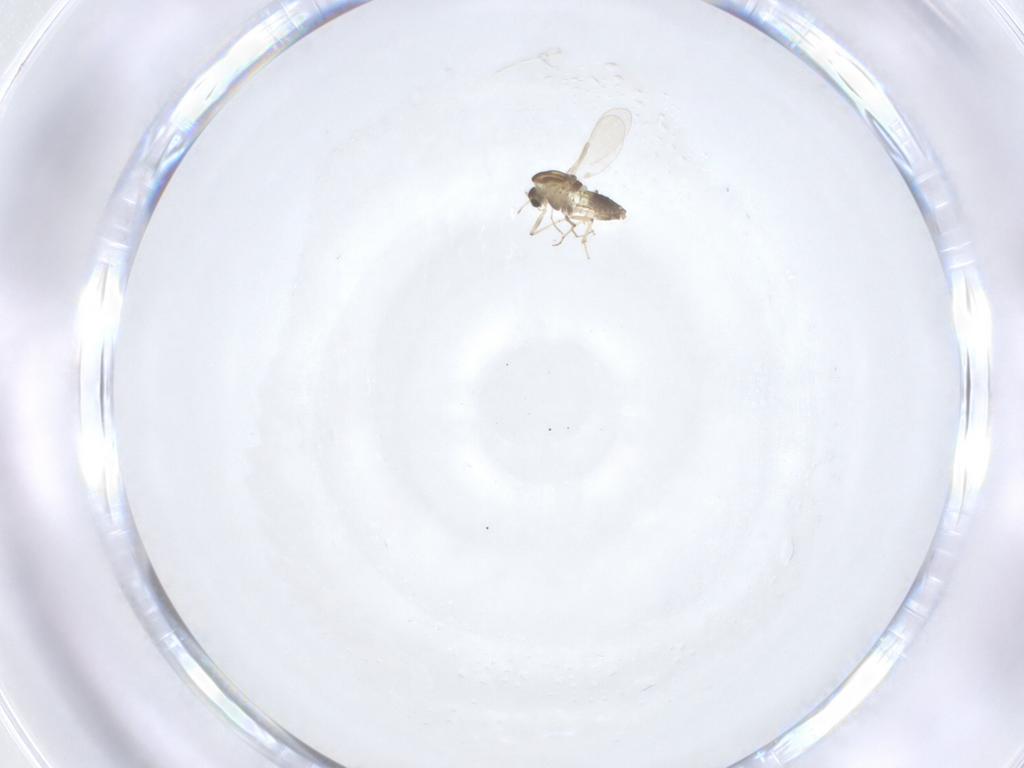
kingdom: Animalia
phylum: Arthropoda
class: Insecta
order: Diptera
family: Chironomidae
